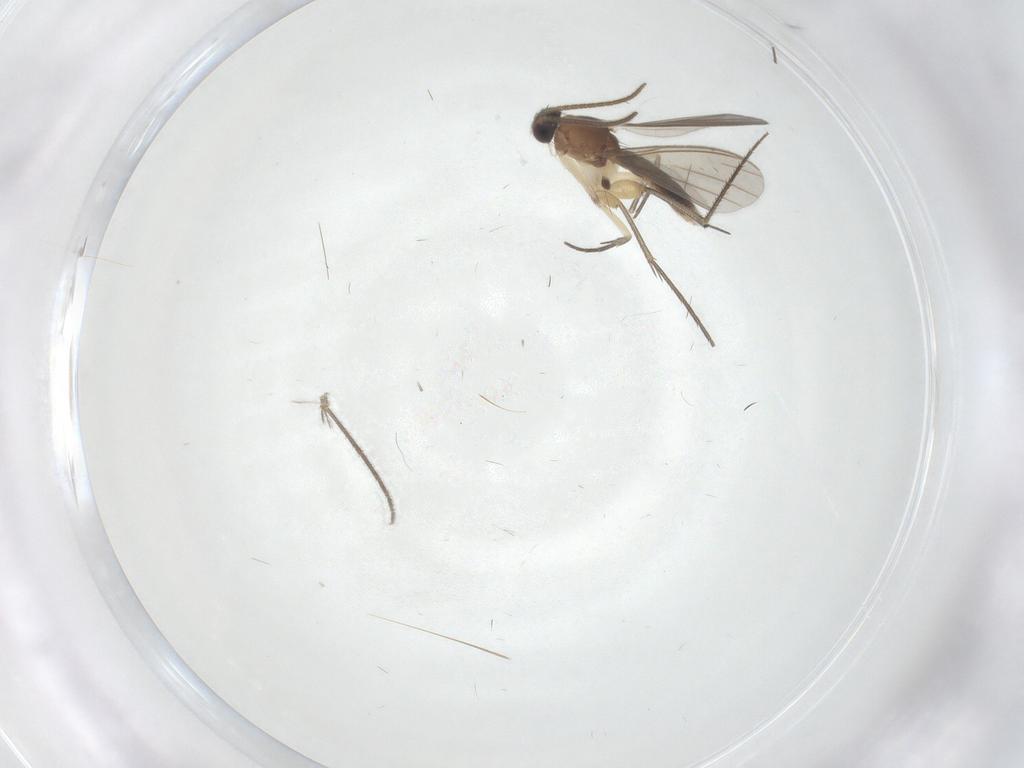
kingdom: Animalia
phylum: Arthropoda
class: Insecta
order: Diptera
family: Mycetophilidae
